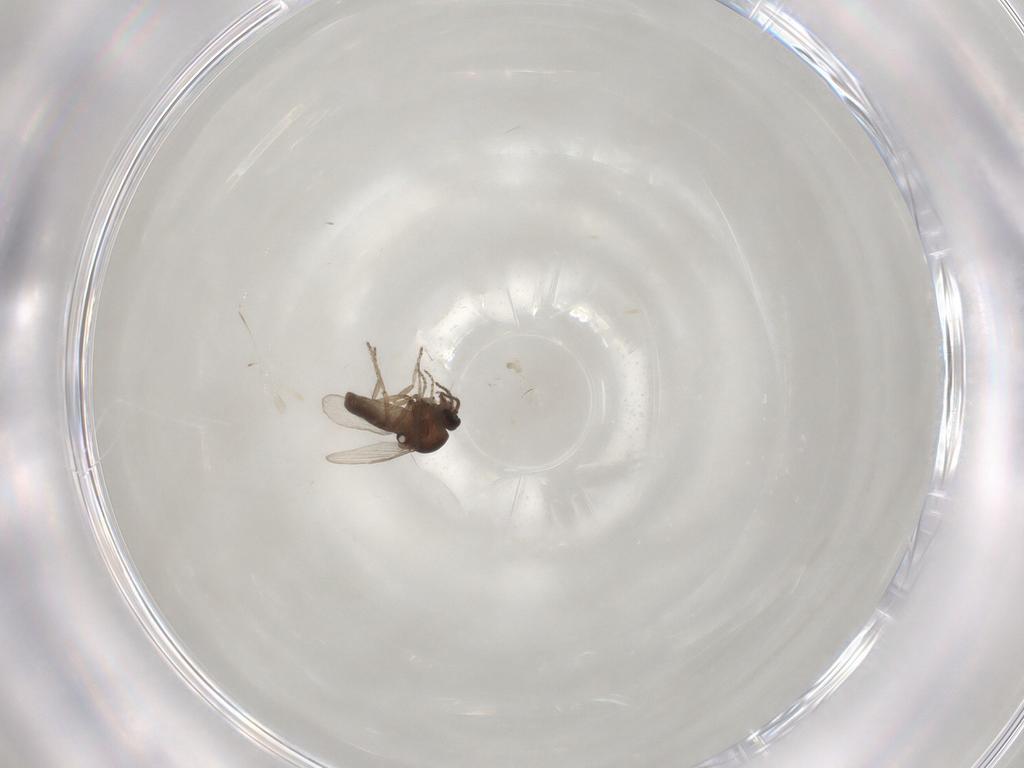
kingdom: Animalia
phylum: Arthropoda
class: Insecta
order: Diptera
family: Ceratopogonidae
